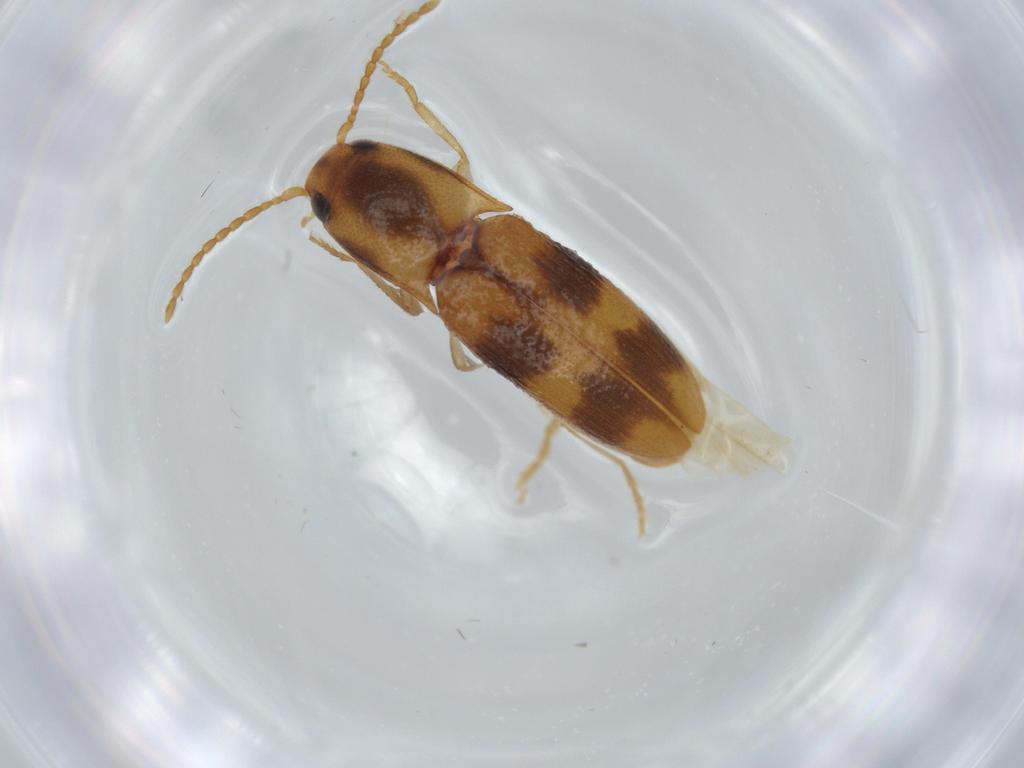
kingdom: Animalia
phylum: Arthropoda
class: Insecta
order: Coleoptera
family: Elateridae
